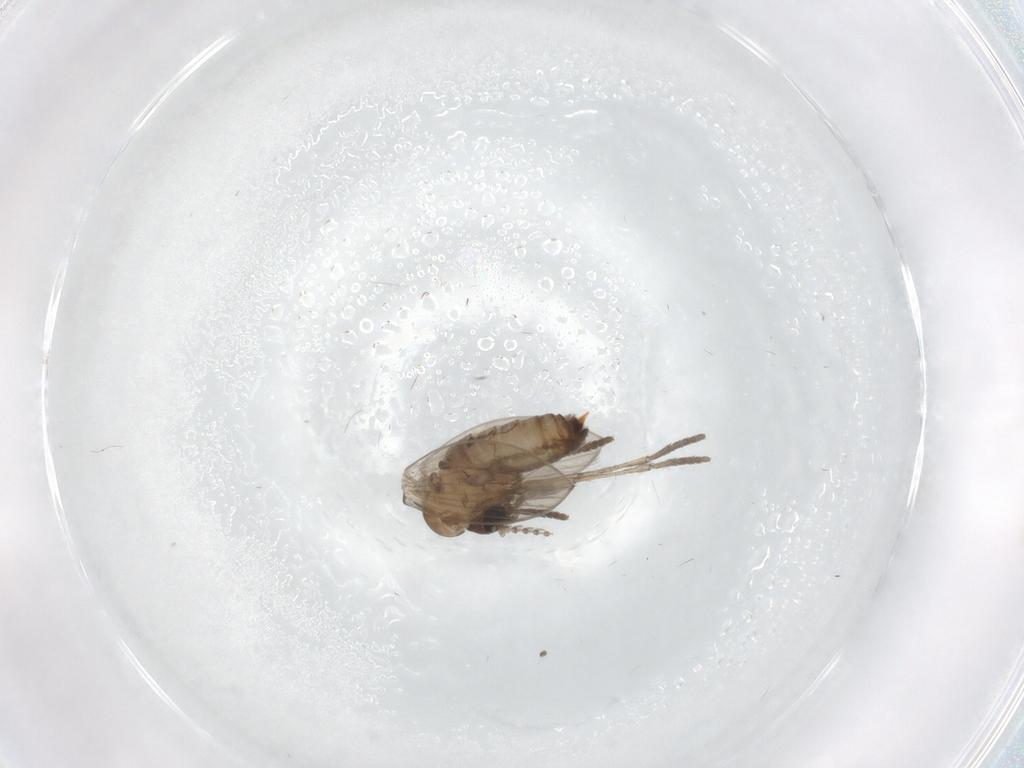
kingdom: Animalia
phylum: Arthropoda
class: Insecta
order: Diptera
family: Psychodidae
